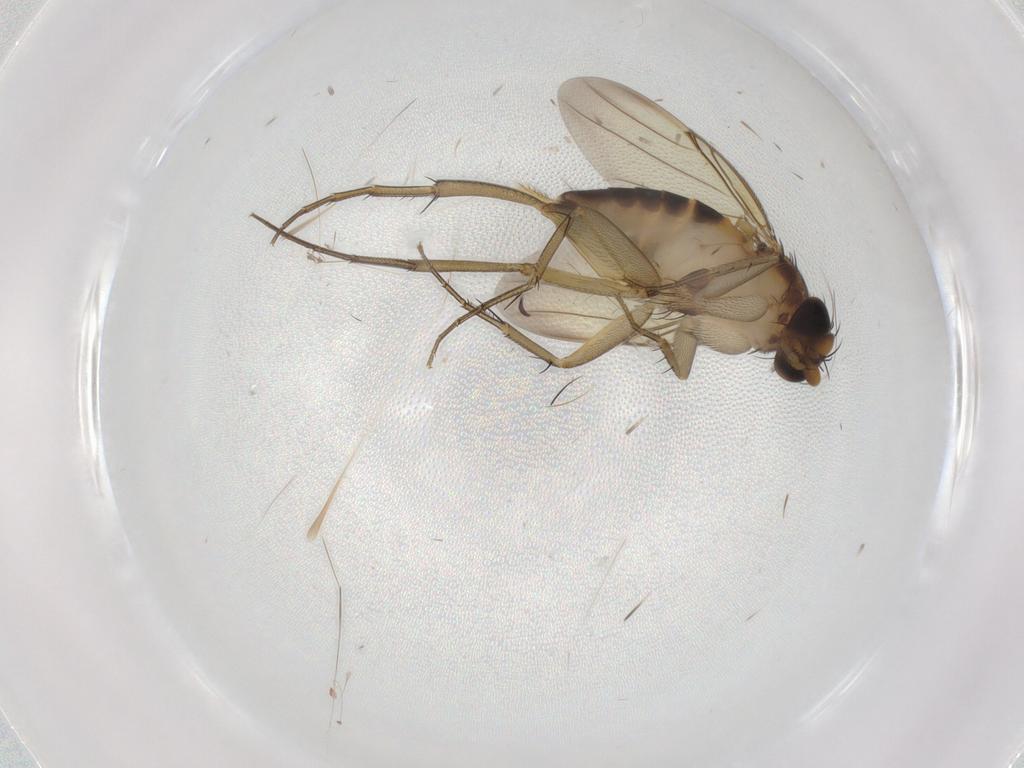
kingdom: Animalia
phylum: Arthropoda
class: Insecta
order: Diptera
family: Phoridae
